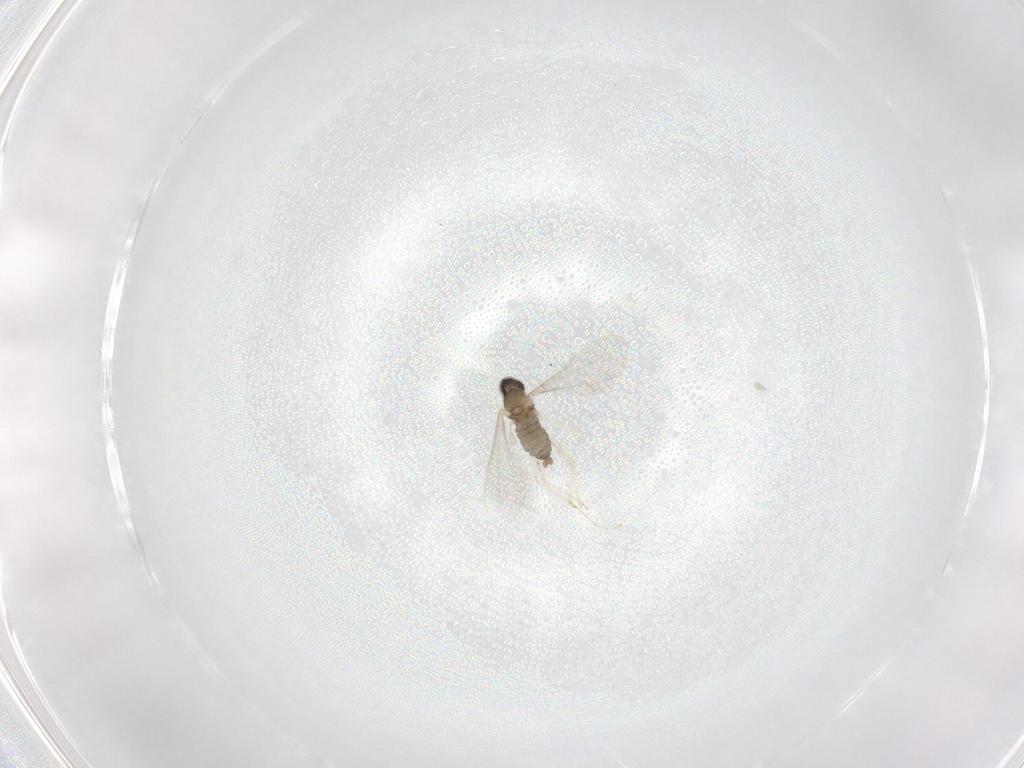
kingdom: Animalia
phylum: Arthropoda
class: Insecta
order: Diptera
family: Cecidomyiidae
